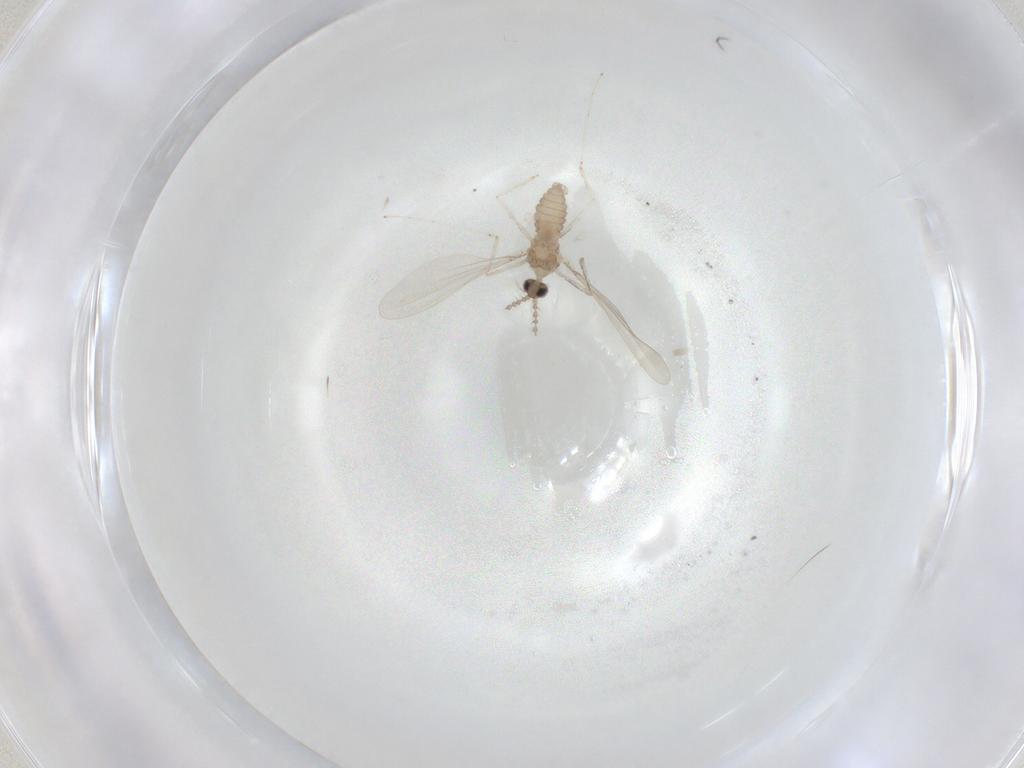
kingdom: Animalia
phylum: Arthropoda
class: Insecta
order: Diptera
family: Cecidomyiidae
